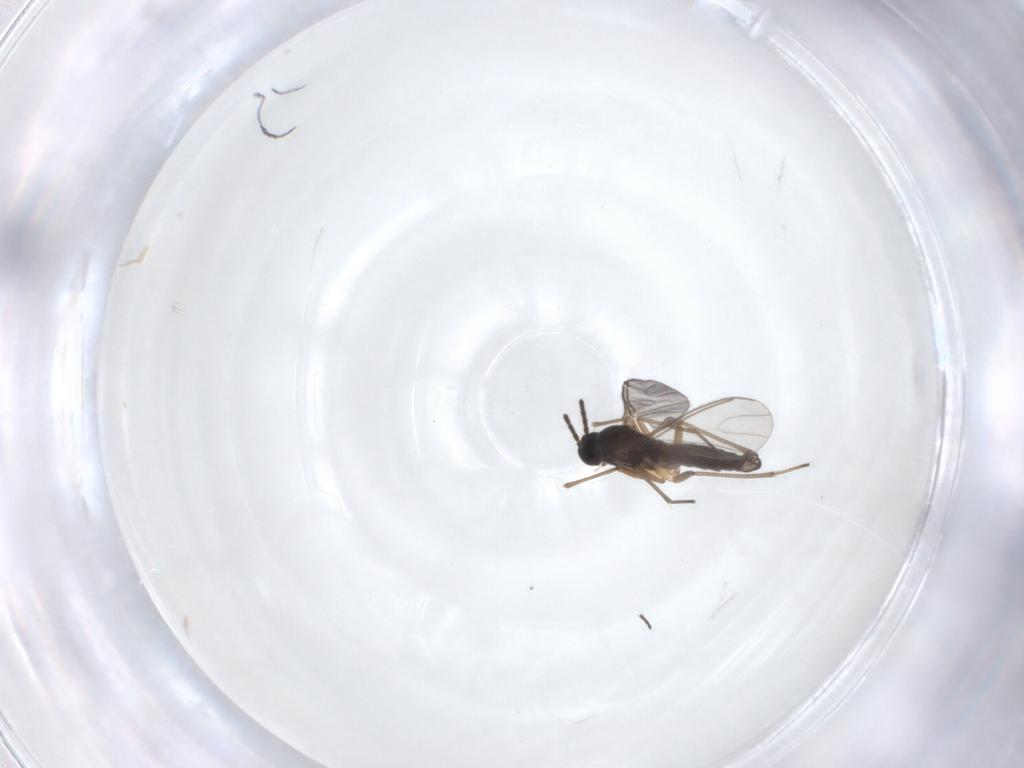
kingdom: Animalia
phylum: Arthropoda
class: Insecta
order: Diptera
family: Sciaridae
